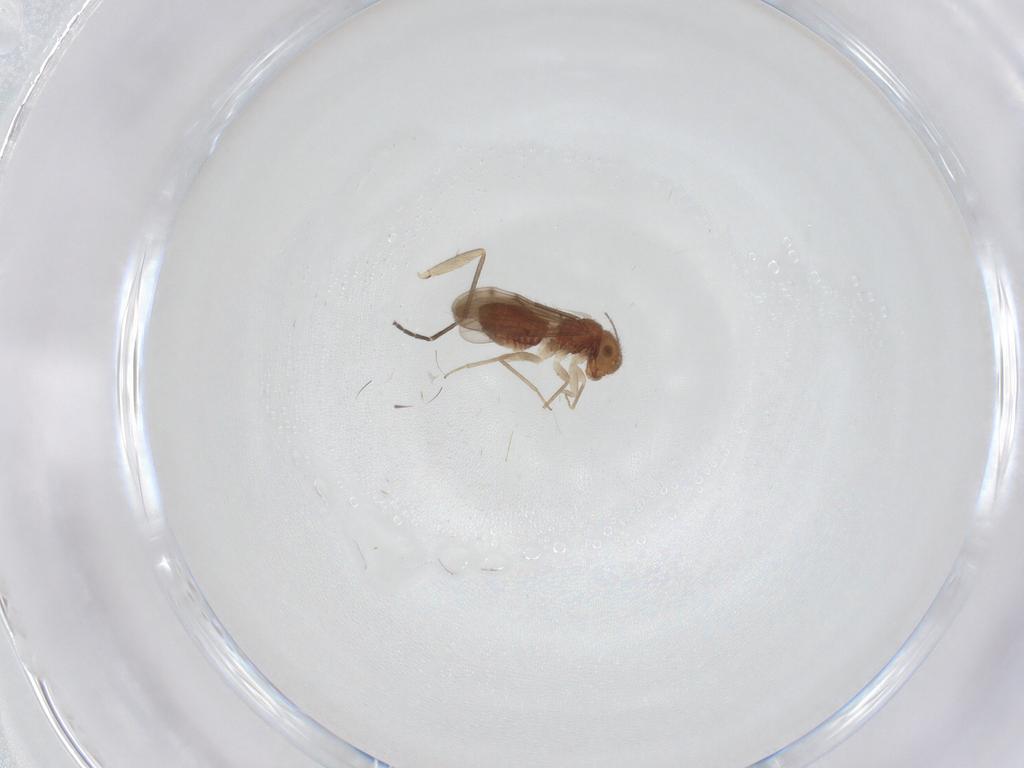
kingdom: Animalia
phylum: Arthropoda
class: Insecta
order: Psocodea
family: Ectopsocidae
